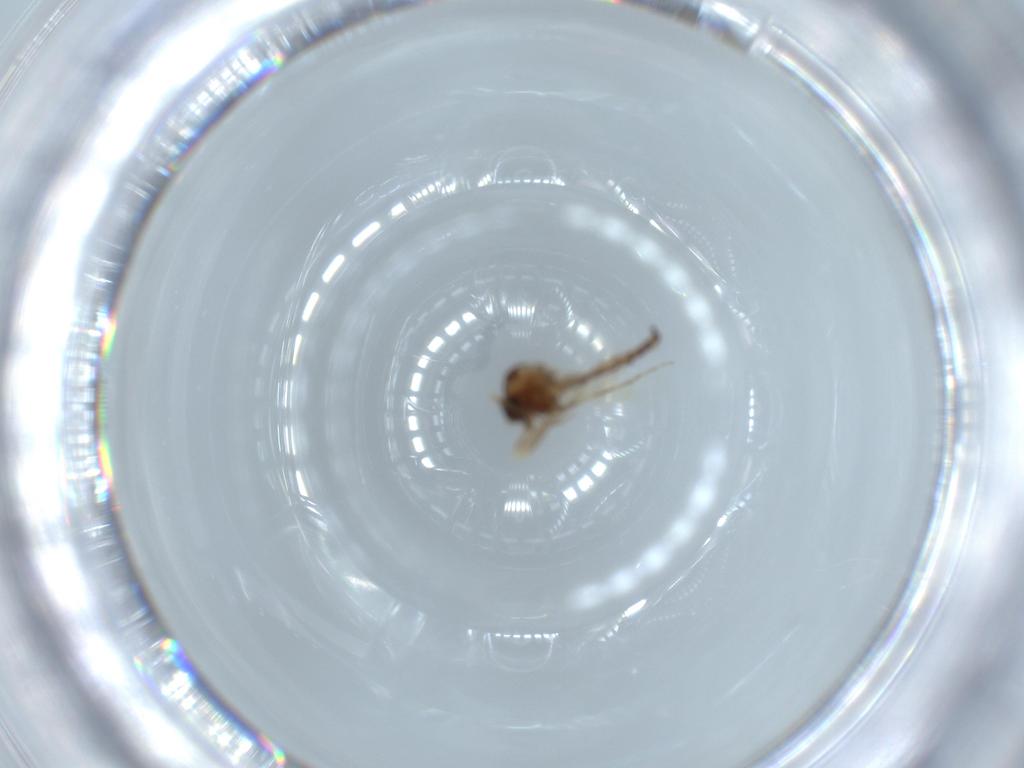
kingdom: Animalia
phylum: Arthropoda
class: Insecta
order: Diptera
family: Ceratopogonidae
